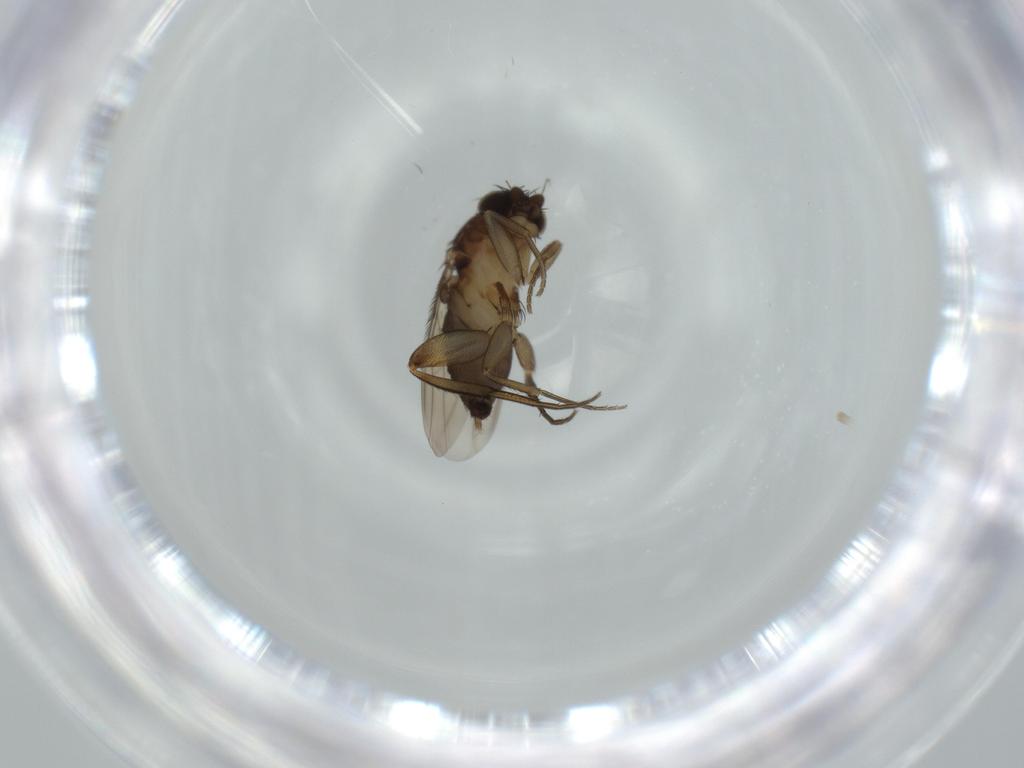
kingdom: Animalia
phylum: Arthropoda
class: Insecta
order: Diptera
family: Phoridae
